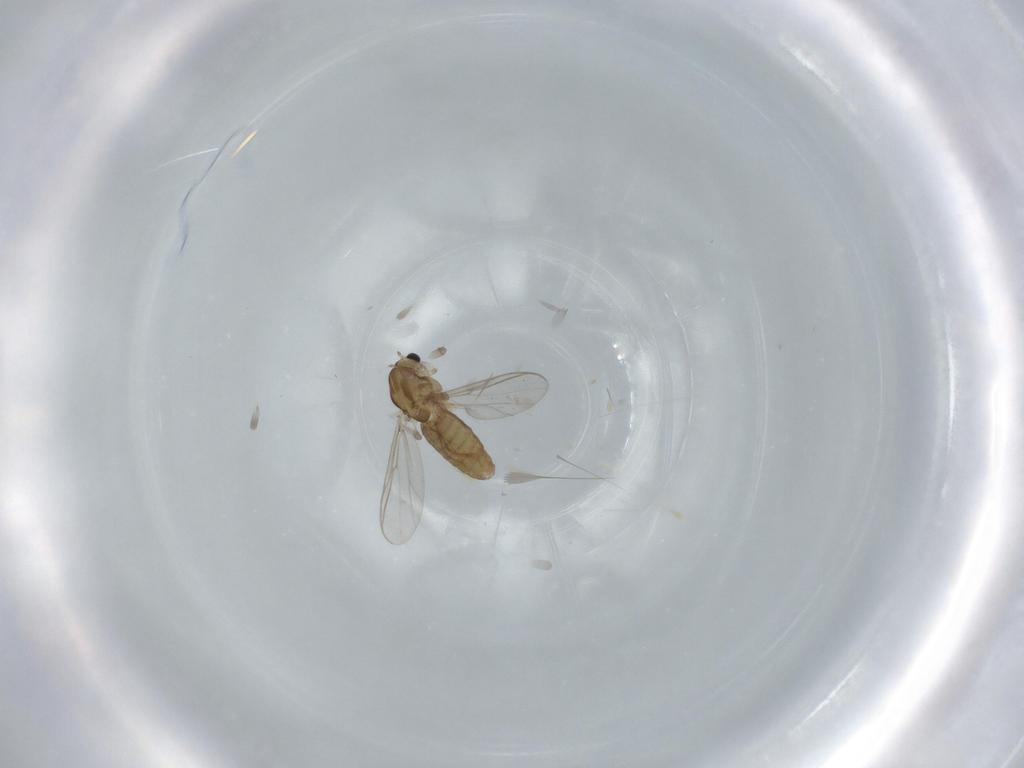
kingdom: Animalia
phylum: Arthropoda
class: Insecta
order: Diptera
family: Chironomidae
